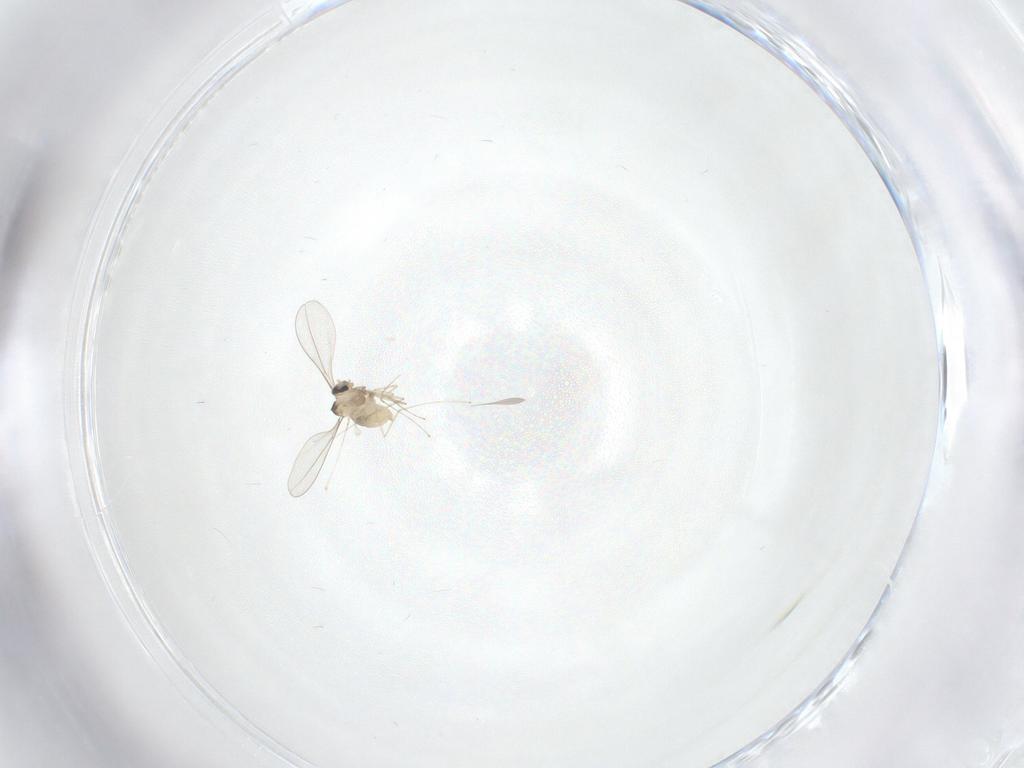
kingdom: Animalia
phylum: Arthropoda
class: Insecta
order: Diptera
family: Cecidomyiidae
